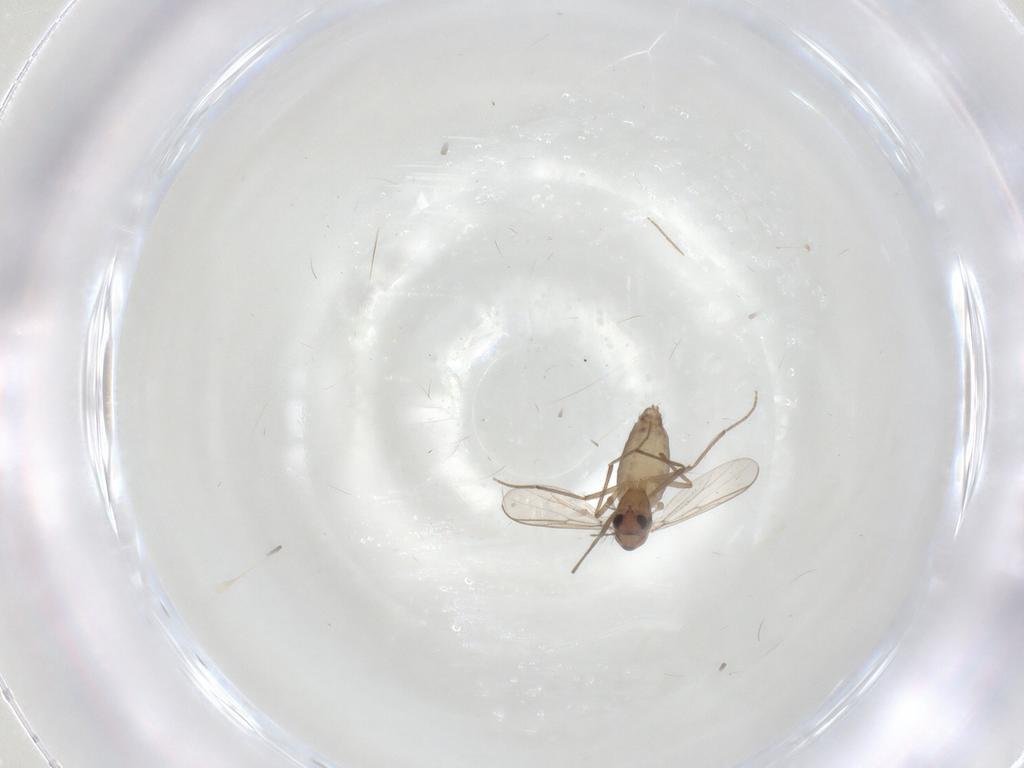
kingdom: Animalia
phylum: Arthropoda
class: Insecta
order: Diptera
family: Chironomidae
